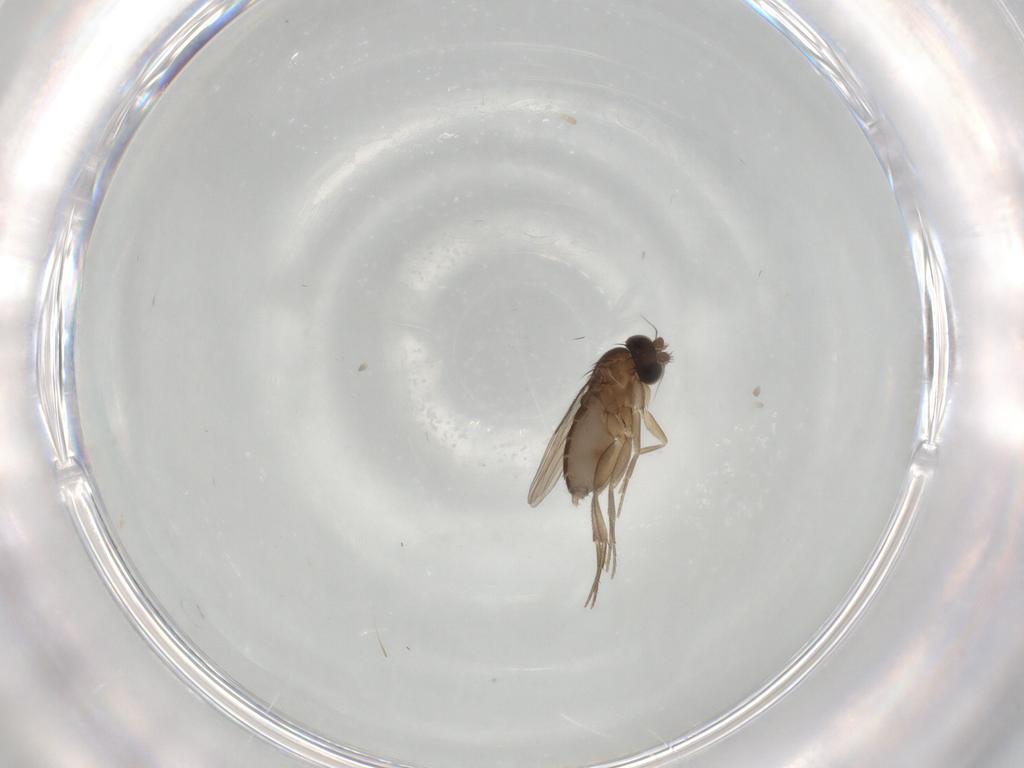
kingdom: Animalia
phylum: Arthropoda
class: Insecta
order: Diptera
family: Phoridae
